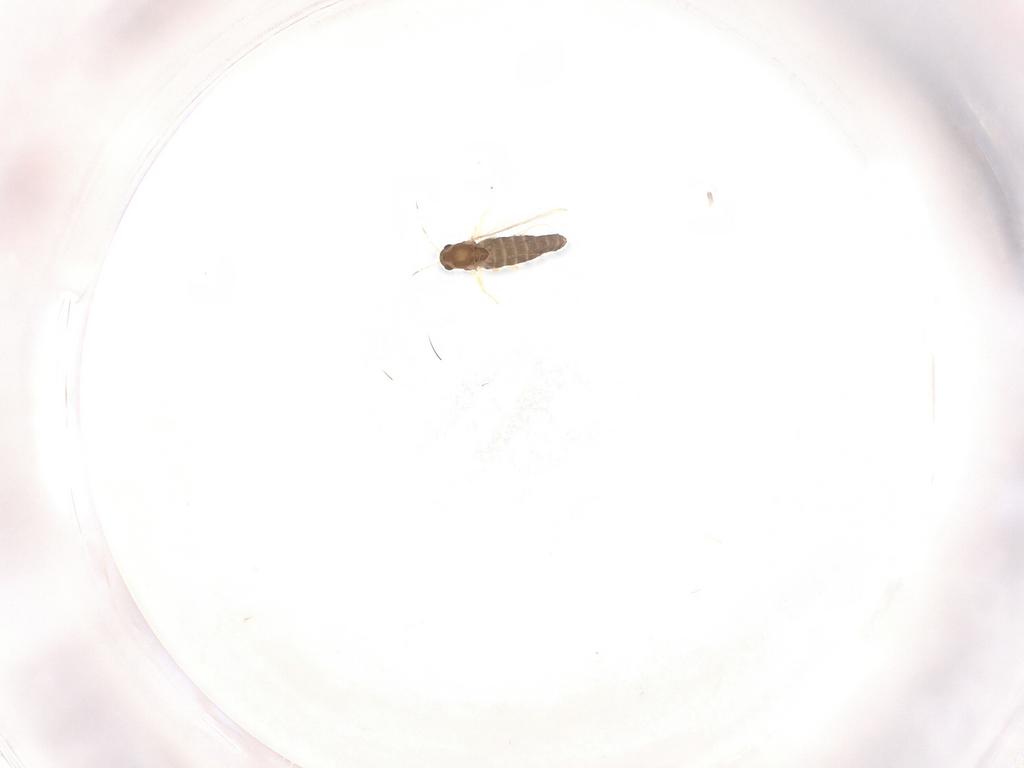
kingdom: Animalia
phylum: Arthropoda
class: Insecta
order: Diptera
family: Chironomidae
